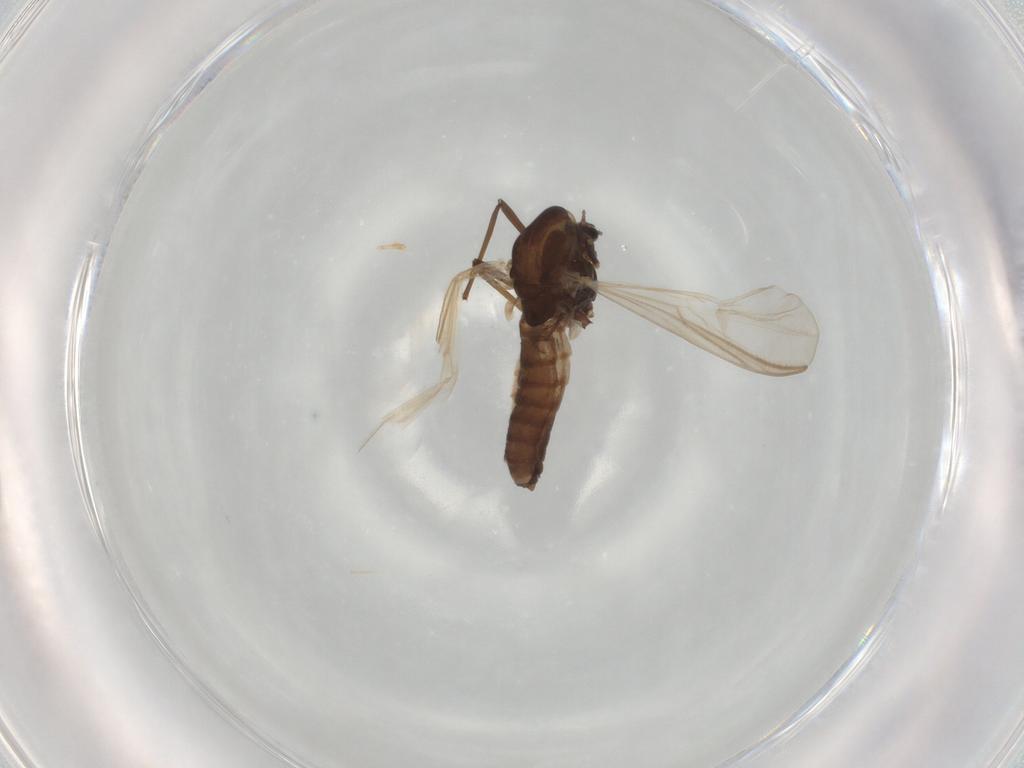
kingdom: Animalia
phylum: Arthropoda
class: Insecta
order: Diptera
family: Chironomidae
